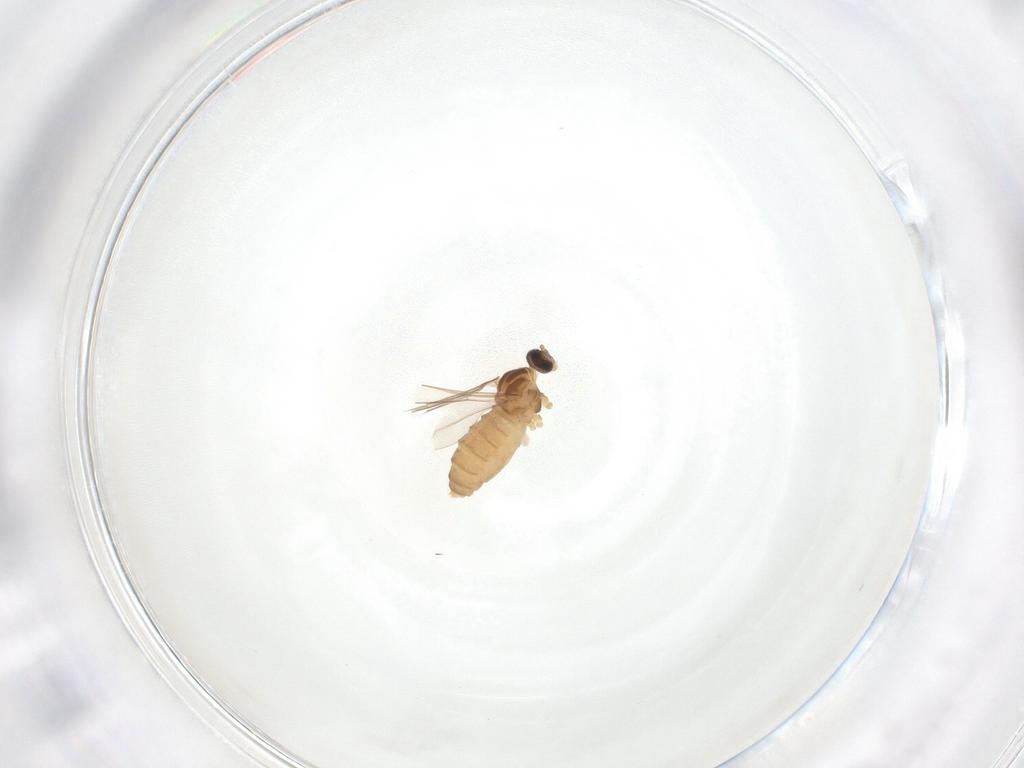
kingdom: Animalia
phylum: Arthropoda
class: Insecta
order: Diptera
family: Cecidomyiidae
